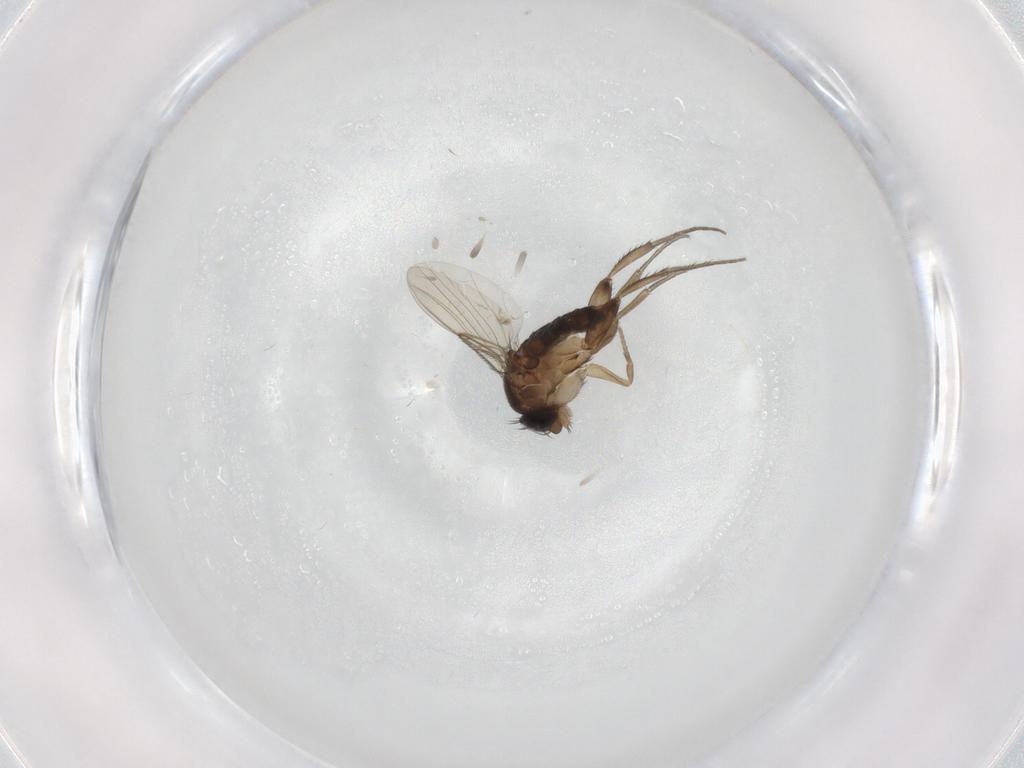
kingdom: Animalia
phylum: Arthropoda
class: Insecta
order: Diptera
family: Phoridae
